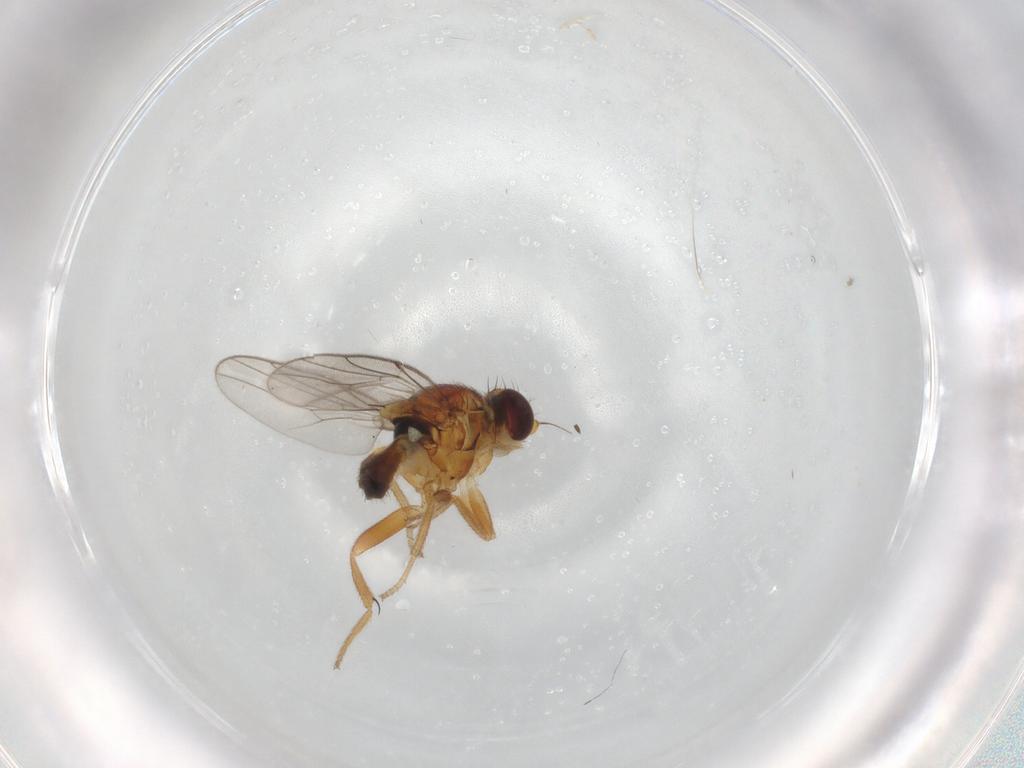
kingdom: Animalia
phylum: Arthropoda
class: Insecta
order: Diptera
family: Chloropidae
